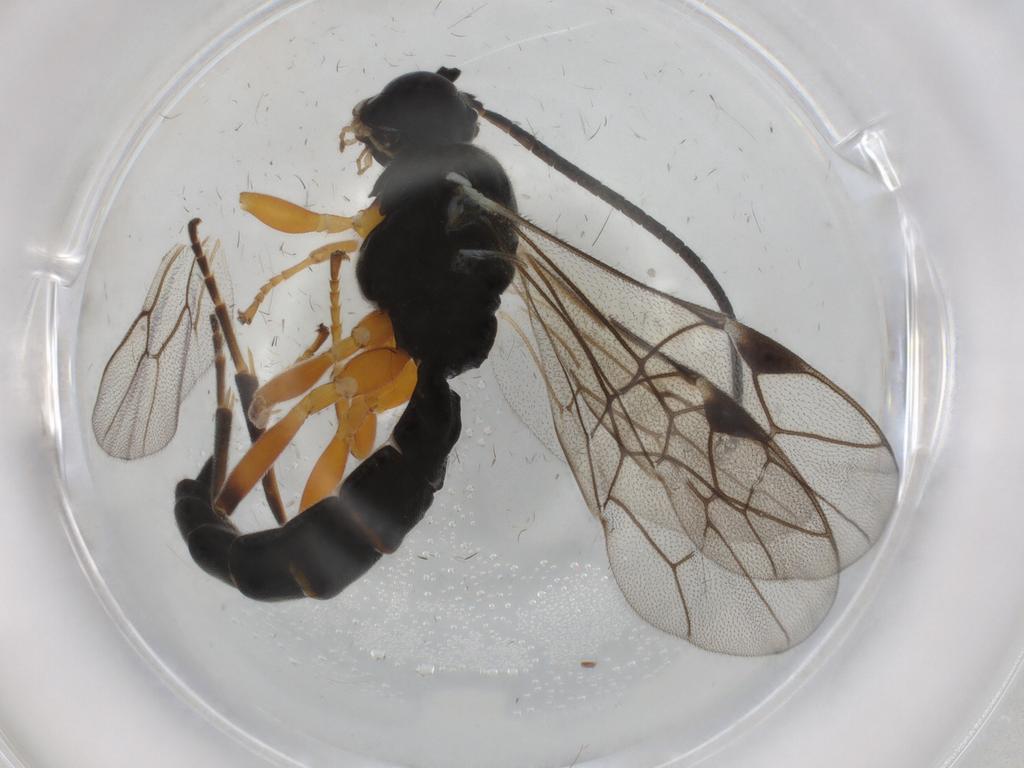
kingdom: Animalia
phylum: Arthropoda
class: Insecta
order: Hymenoptera
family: Ichneumonidae
